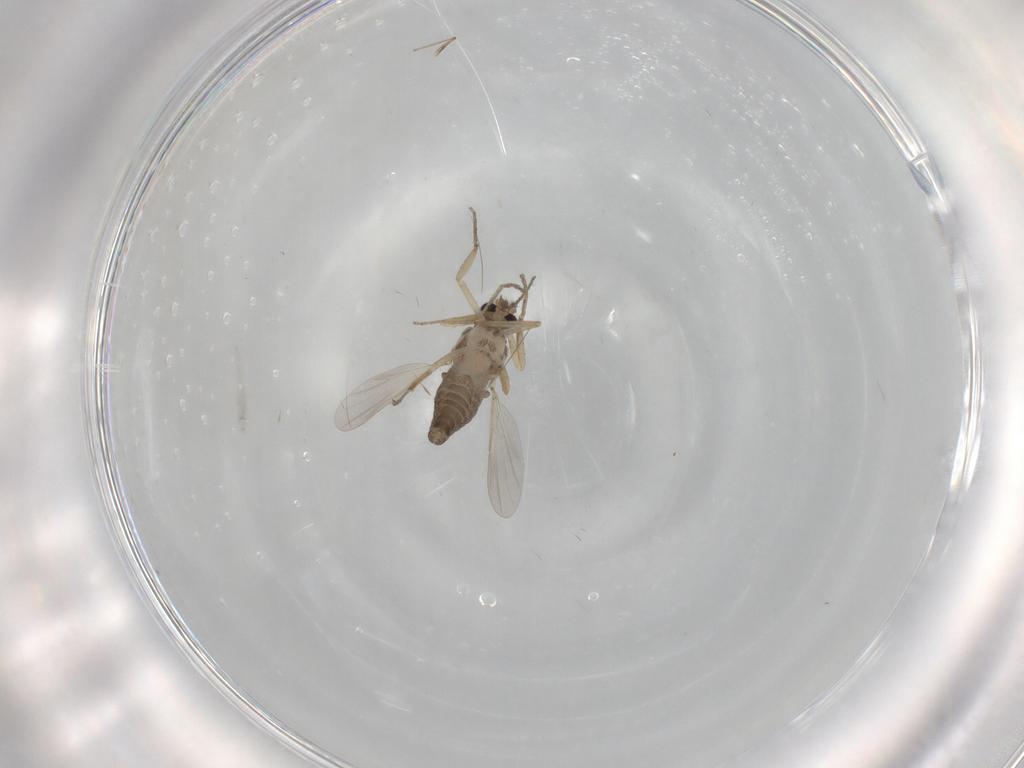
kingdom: Animalia
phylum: Arthropoda
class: Insecta
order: Diptera
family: Ceratopogonidae
